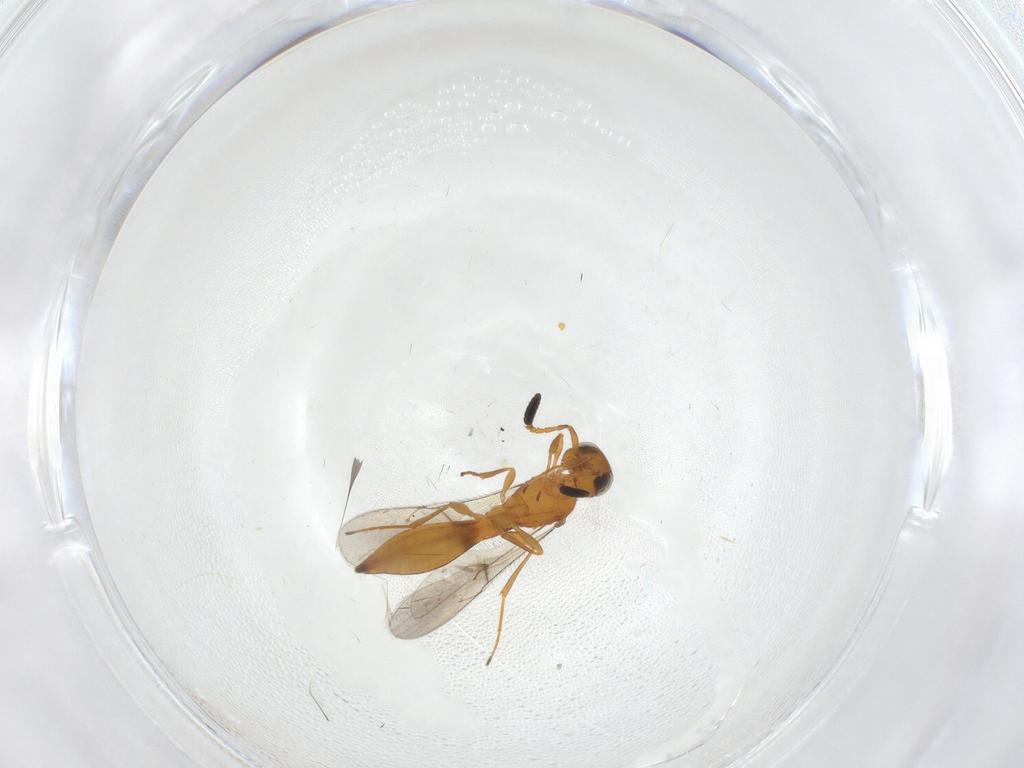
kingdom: Animalia
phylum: Arthropoda
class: Insecta
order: Hymenoptera
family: Scelionidae
